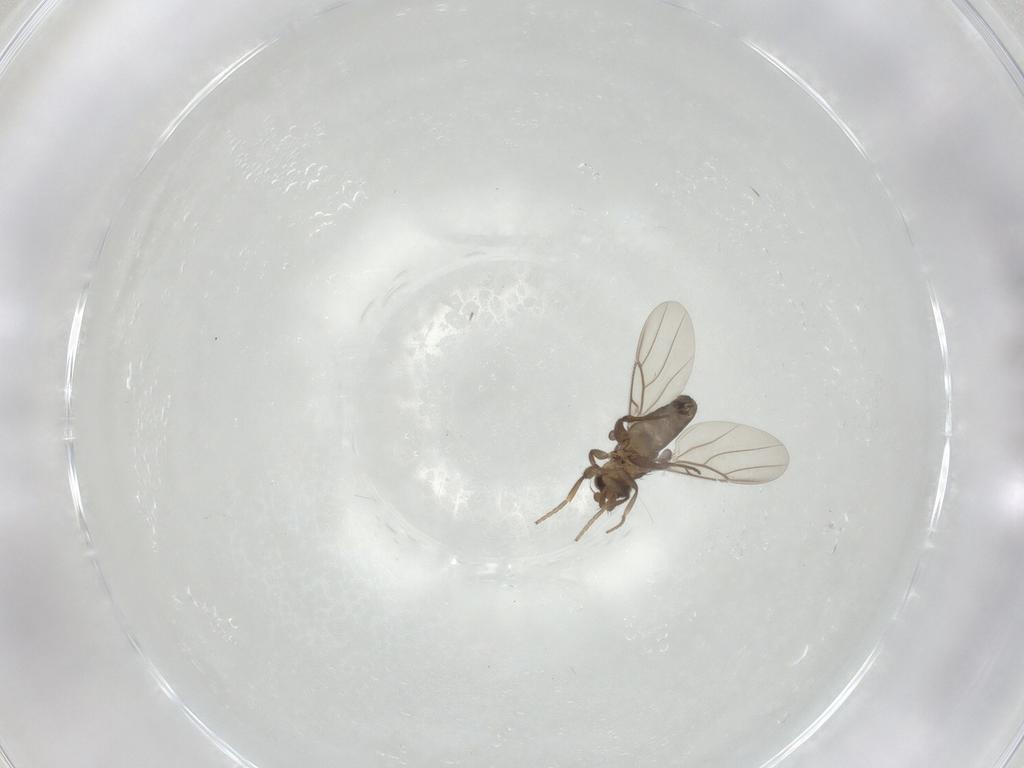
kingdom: Animalia
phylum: Arthropoda
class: Insecta
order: Diptera
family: Phoridae
